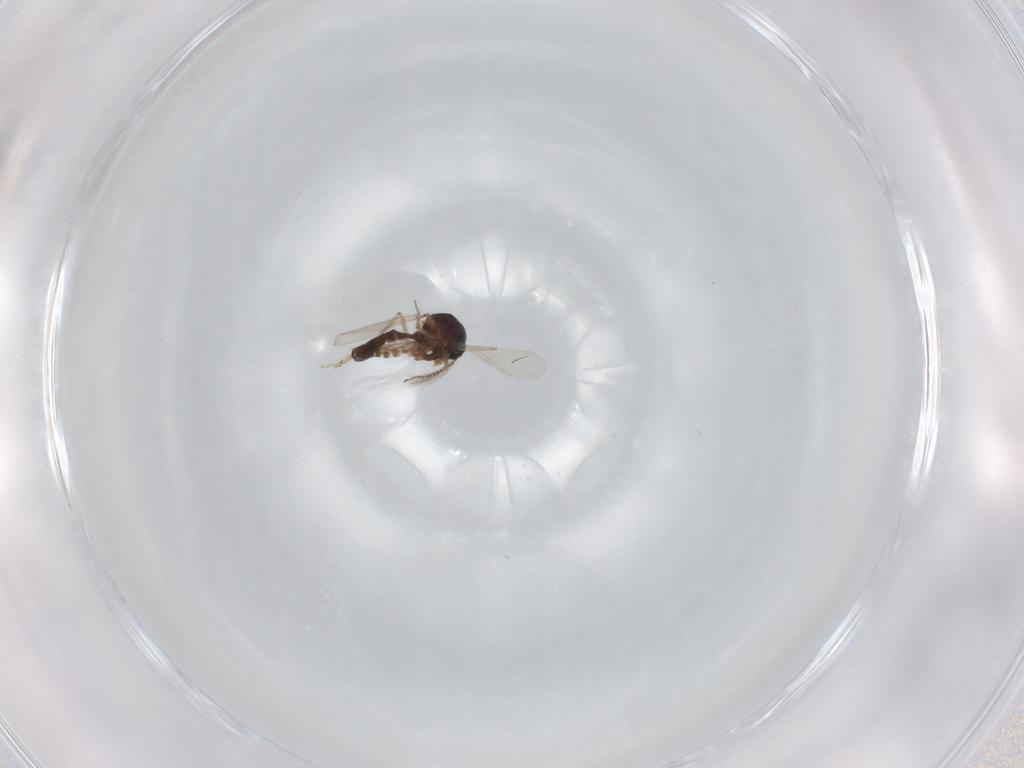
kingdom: Animalia
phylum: Arthropoda
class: Insecta
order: Diptera
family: Ceratopogonidae
